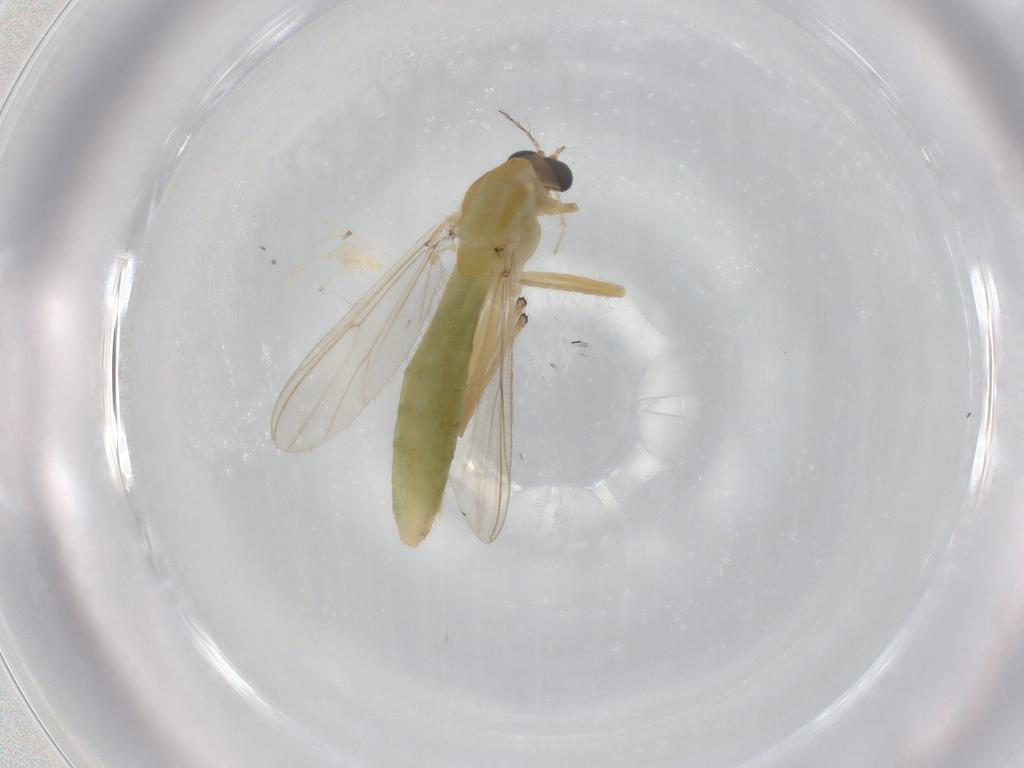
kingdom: Animalia
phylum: Arthropoda
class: Insecta
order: Diptera
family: Chironomidae
